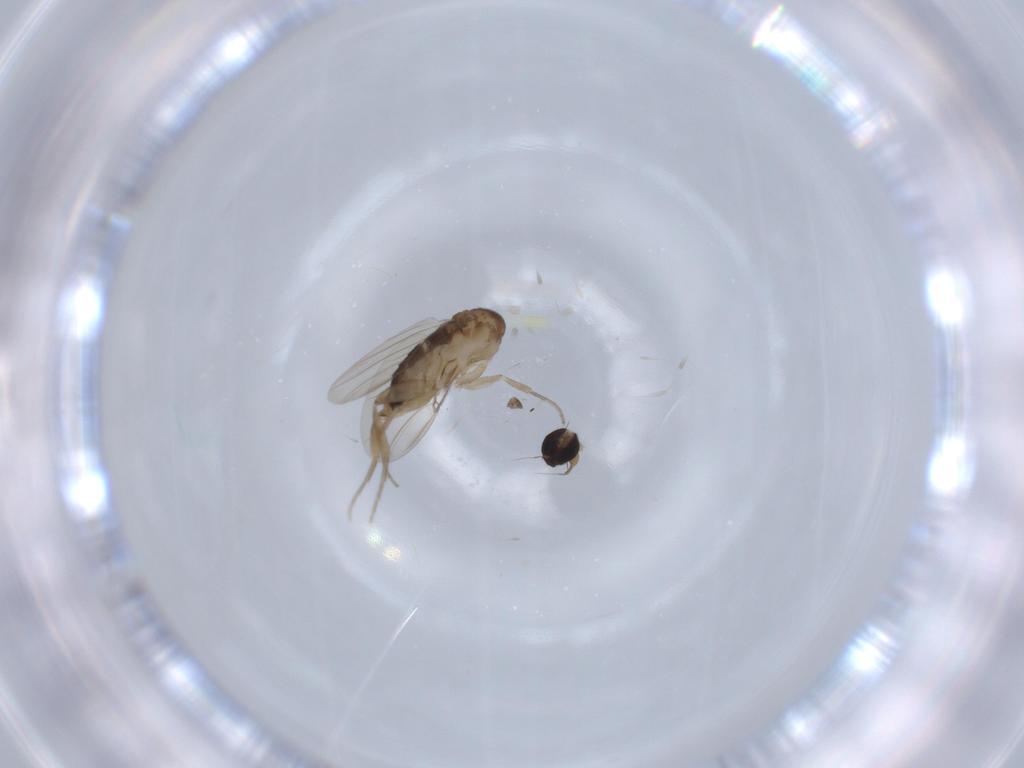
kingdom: Animalia
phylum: Arthropoda
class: Insecta
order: Diptera
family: Phoridae
